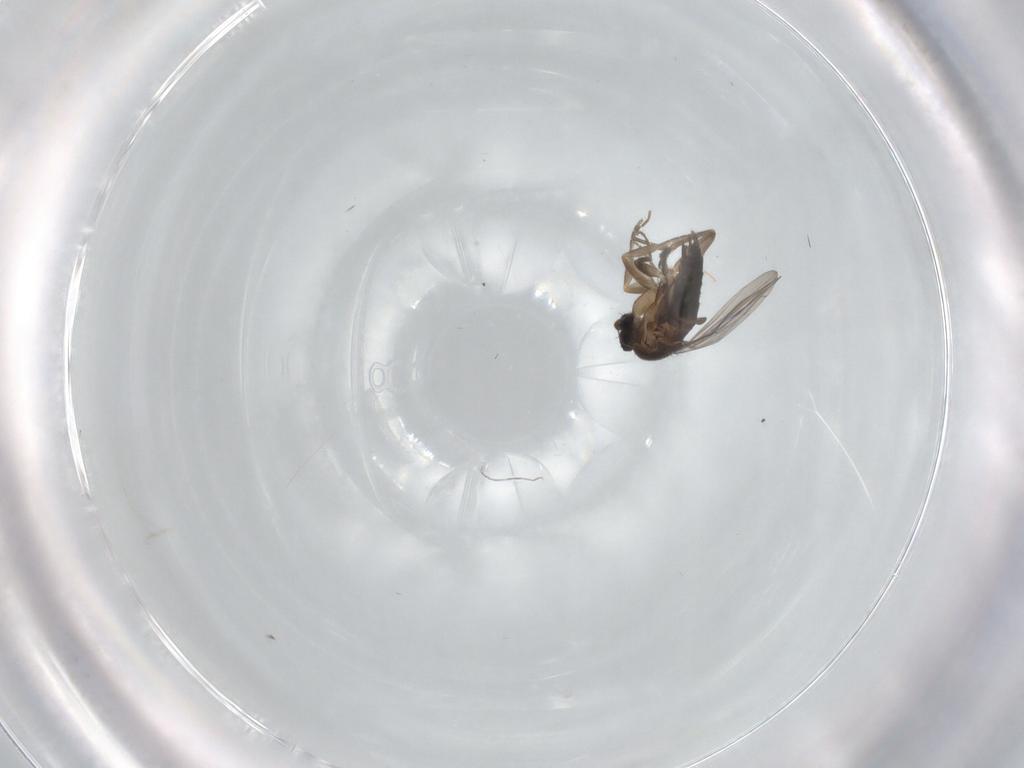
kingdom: Animalia
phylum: Arthropoda
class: Insecta
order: Diptera
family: Phoridae
